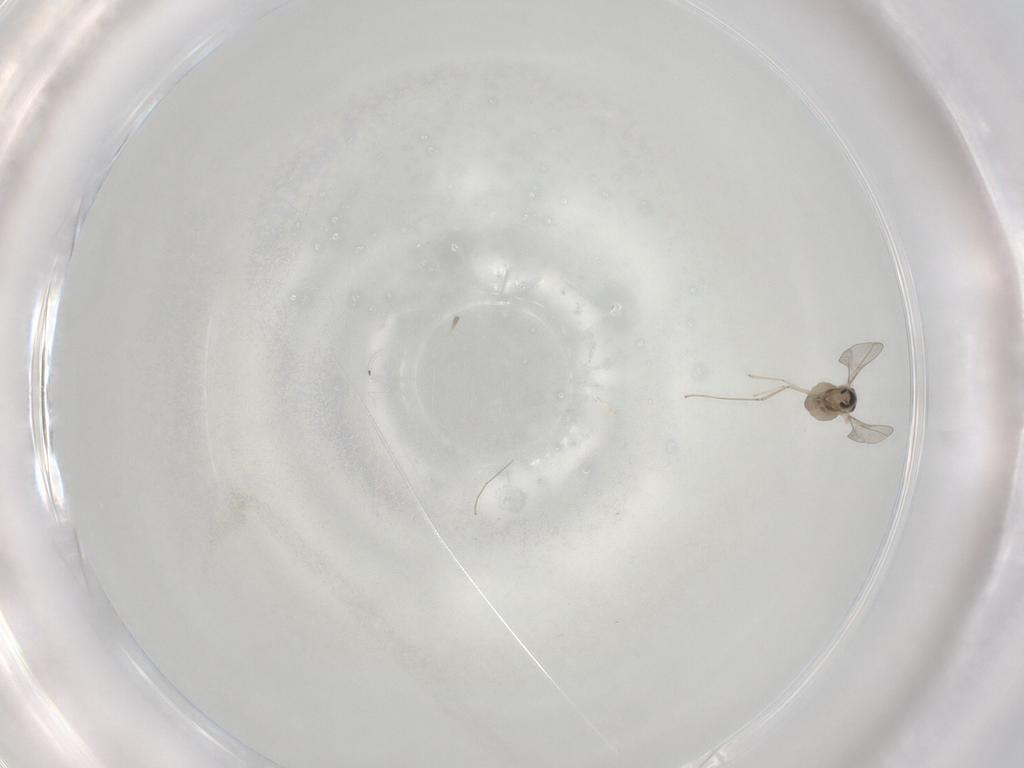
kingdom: Animalia
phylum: Arthropoda
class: Insecta
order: Diptera
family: Cecidomyiidae
